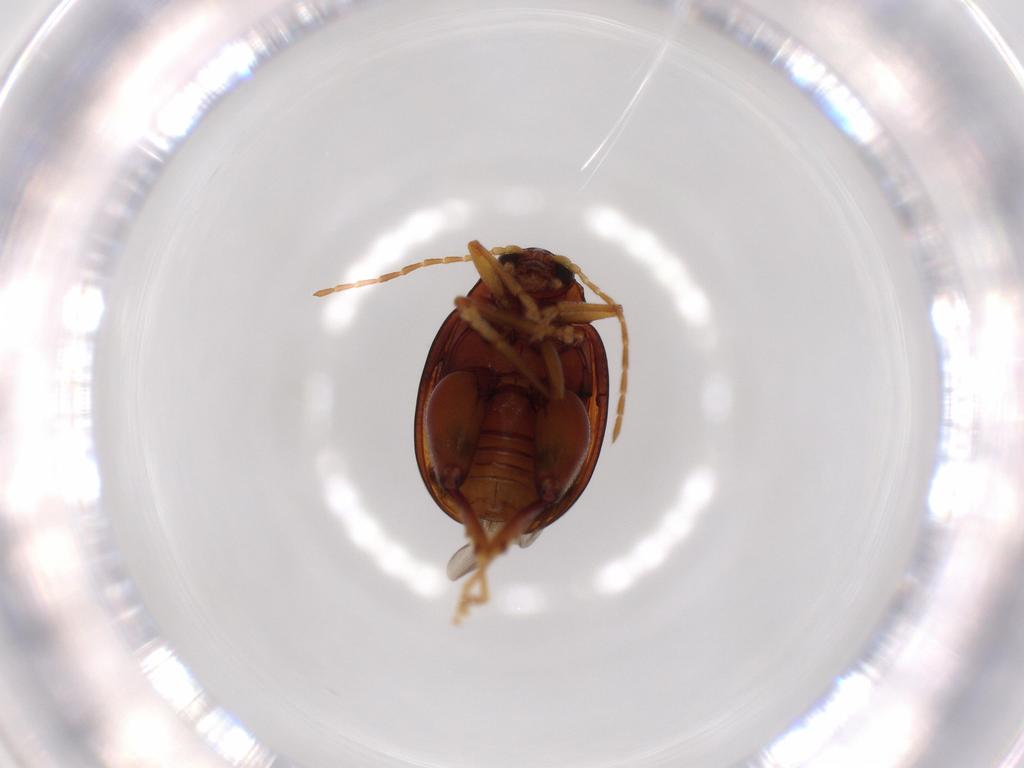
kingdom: Animalia
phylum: Arthropoda
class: Insecta
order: Coleoptera
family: Chrysomelidae
